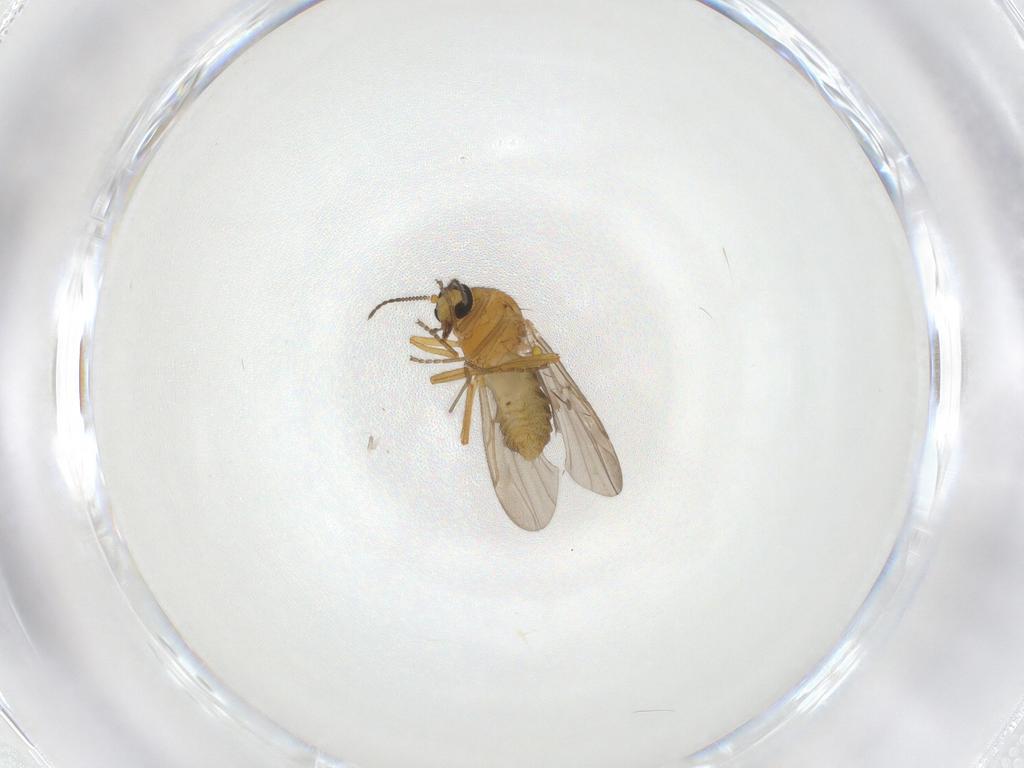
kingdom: Animalia
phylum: Arthropoda
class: Insecta
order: Diptera
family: Ceratopogonidae
